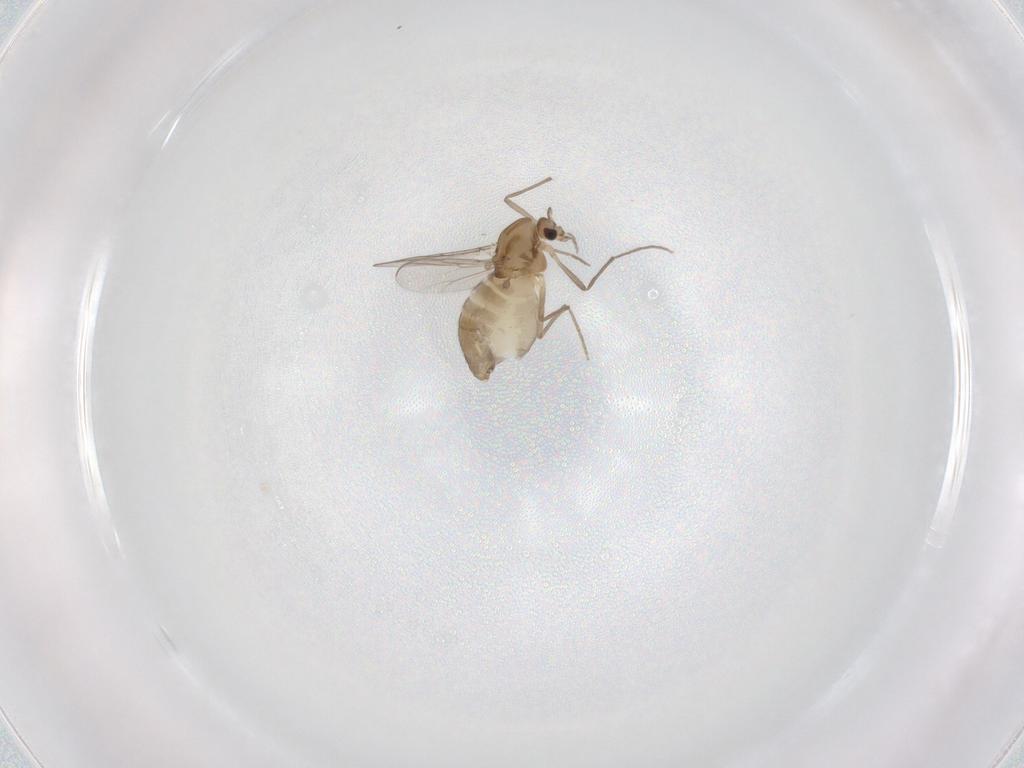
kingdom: Animalia
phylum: Arthropoda
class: Insecta
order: Diptera
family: Chironomidae
